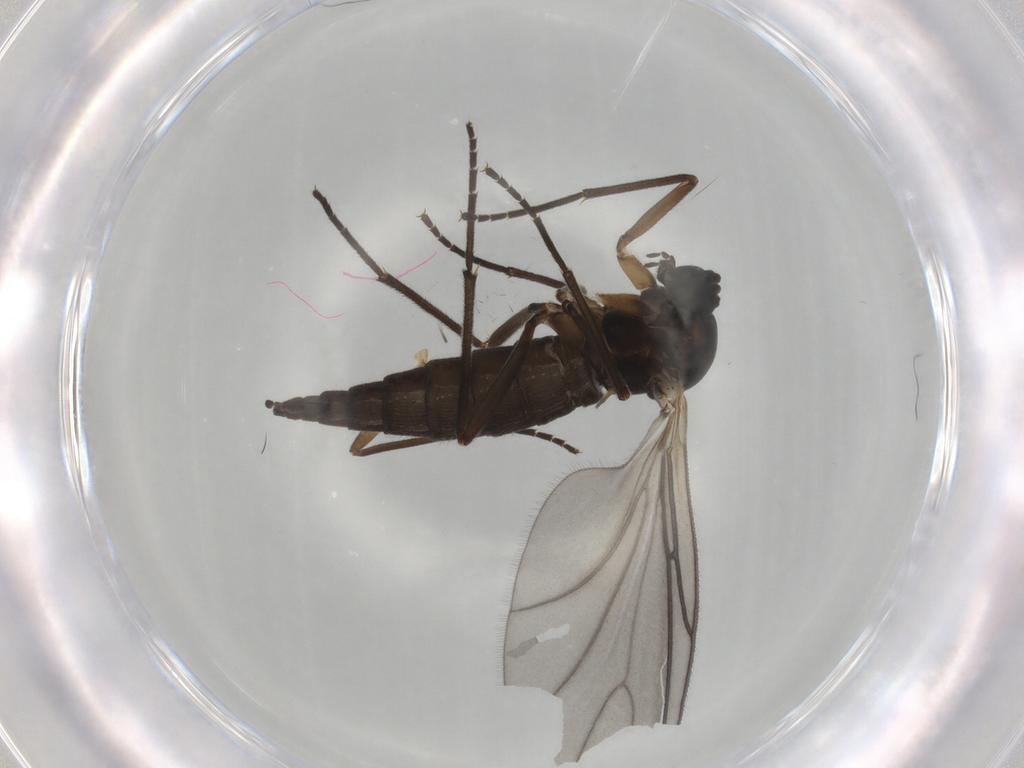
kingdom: Animalia
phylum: Arthropoda
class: Insecta
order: Diptera
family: Sciaridae
